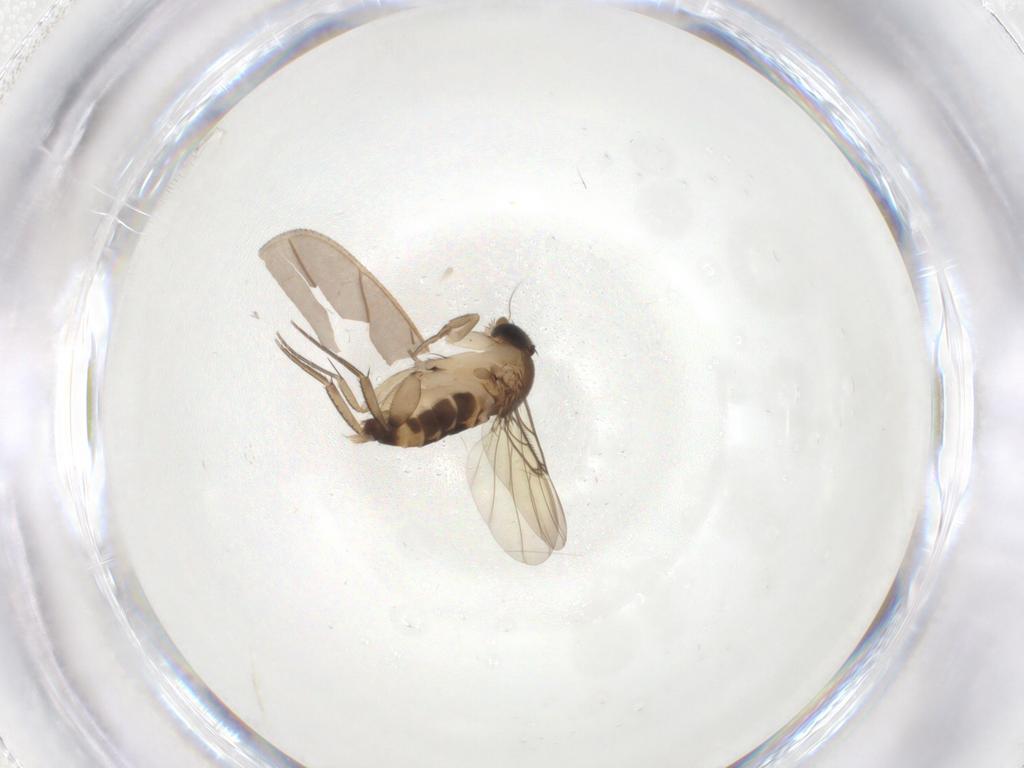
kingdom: Animalia
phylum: Arthropoda
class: Insecta
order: Diptera
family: Phoridae
